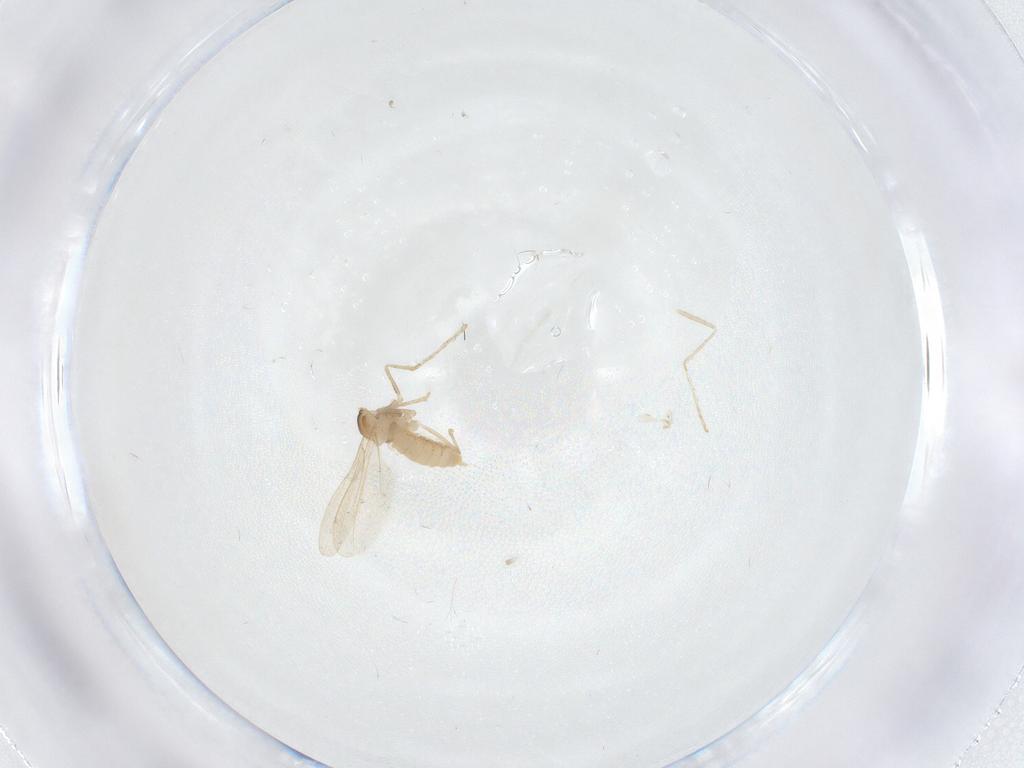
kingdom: Animalia
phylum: Arthropoda
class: Insecta
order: Diptera
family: Cecidomyiidae
